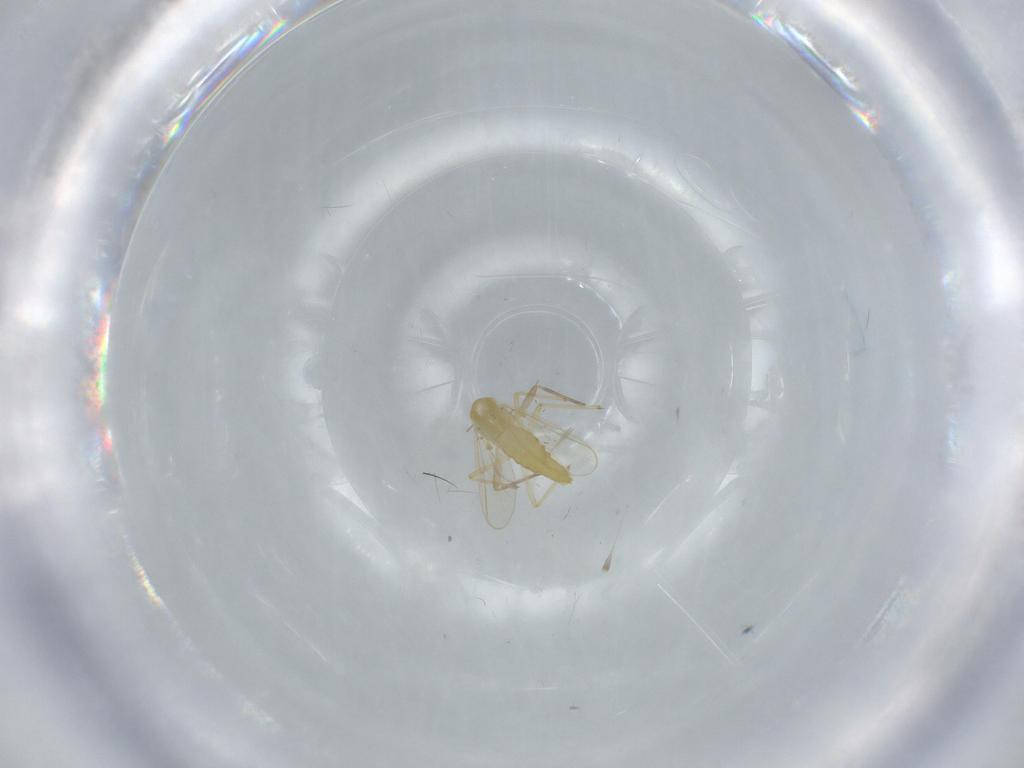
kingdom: Animalia
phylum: Arthropoda
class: Insecta
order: Diptera
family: Chironomidae
